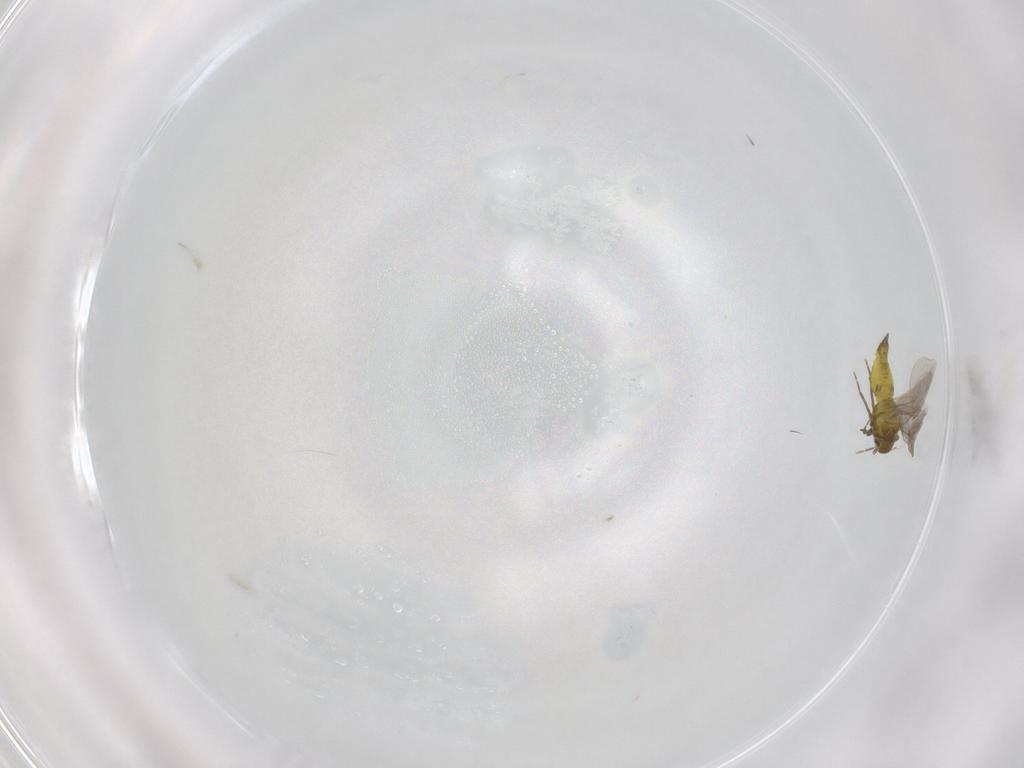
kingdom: Animalia
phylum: Arthropoda
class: Insecta
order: Hemiptera
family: Aleyrodidae
